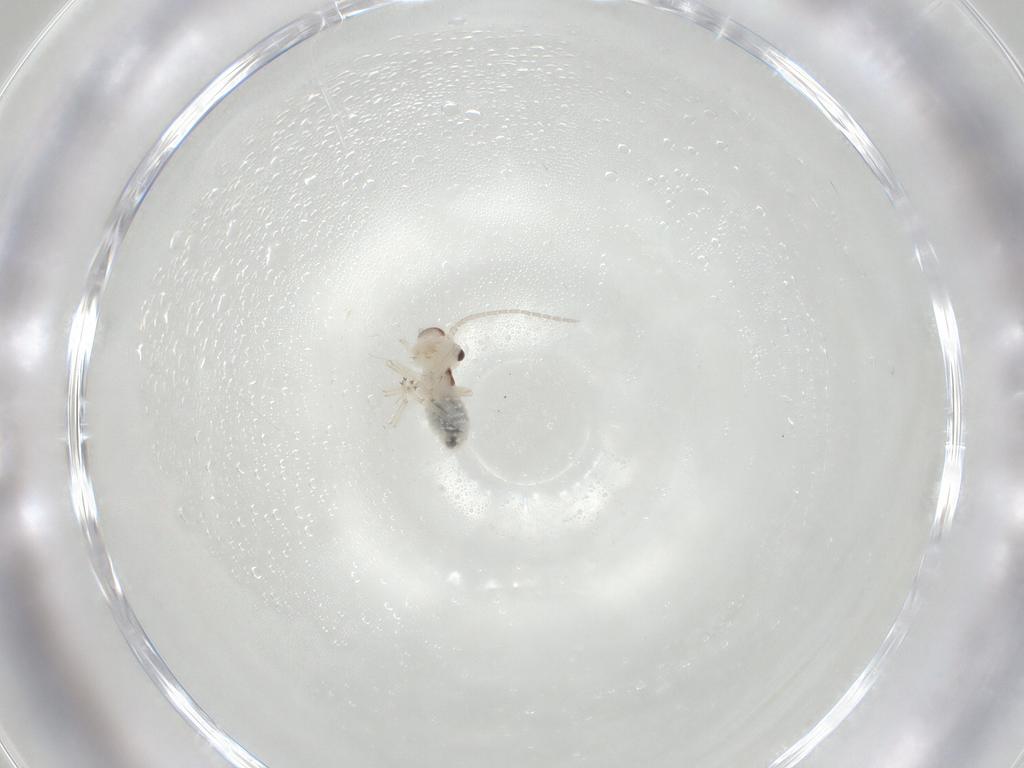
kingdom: Animalia
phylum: Arthropoda
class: Insecta
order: Psocodea
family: Amphipsocidae
